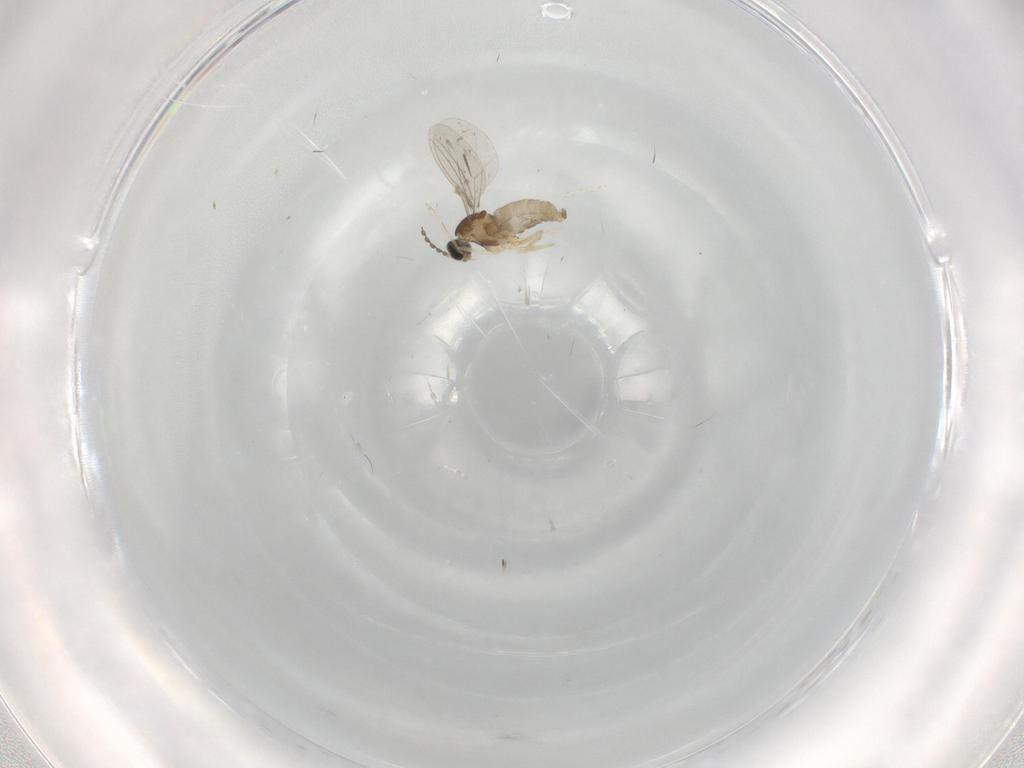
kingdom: Animalia
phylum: Arthropoda
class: Insecta
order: Diptera
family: Cecidomyiidae
